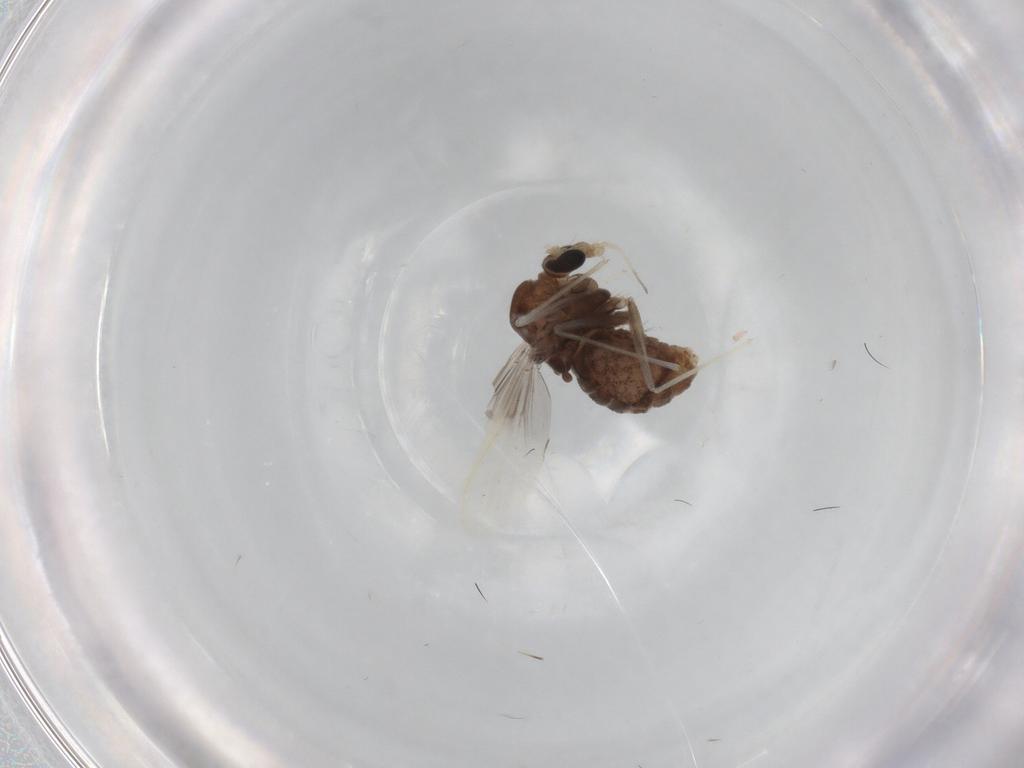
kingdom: Animalia
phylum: Arthropoda
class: Insecta
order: Diptera
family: Chironomidae
